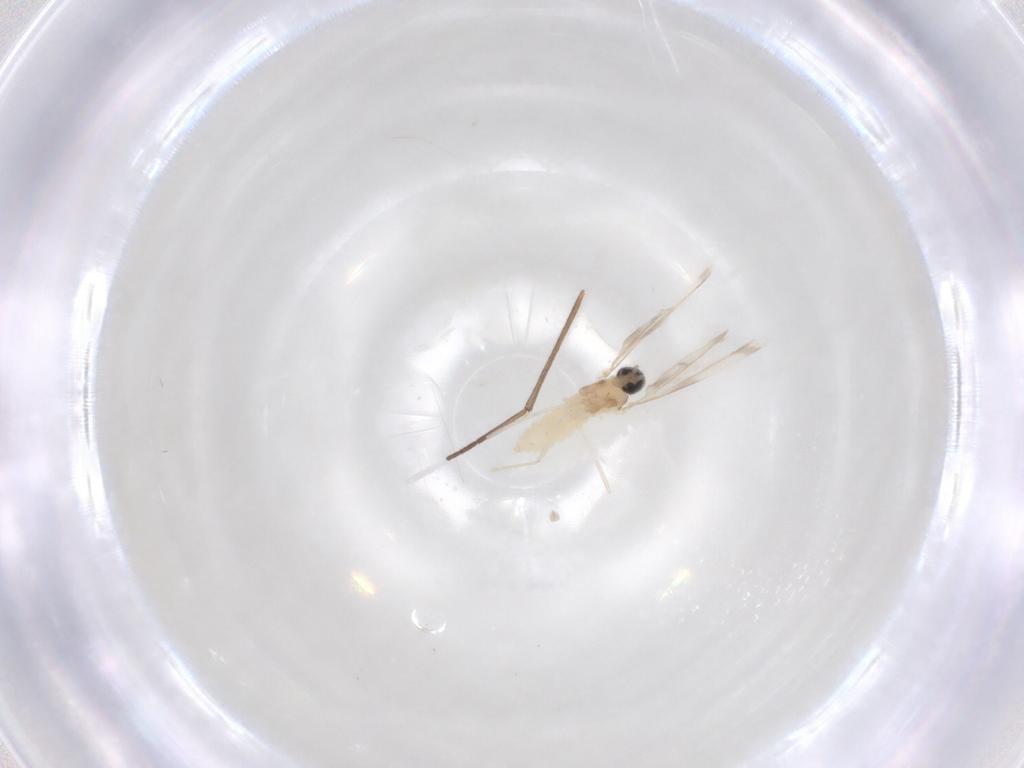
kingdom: Animalia
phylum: Arthropoda
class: Insecta
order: Diptera
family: Sciaridae
